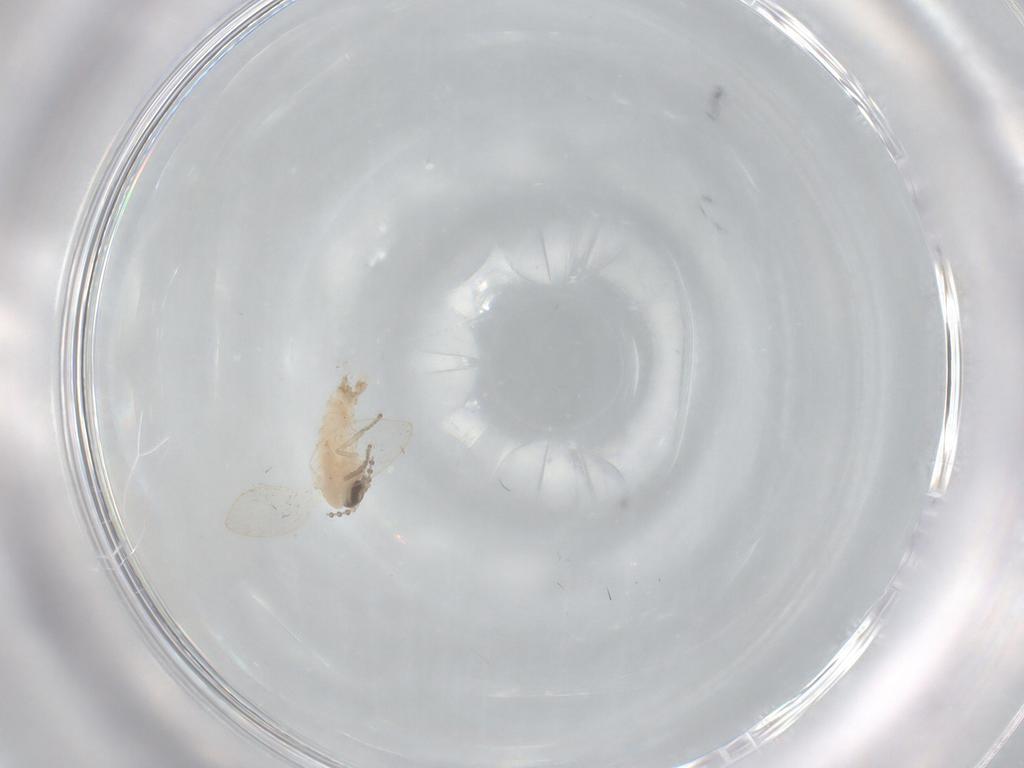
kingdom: Animalia
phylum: Arthropoda
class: Insecta
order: Diptera
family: Psychodidae
